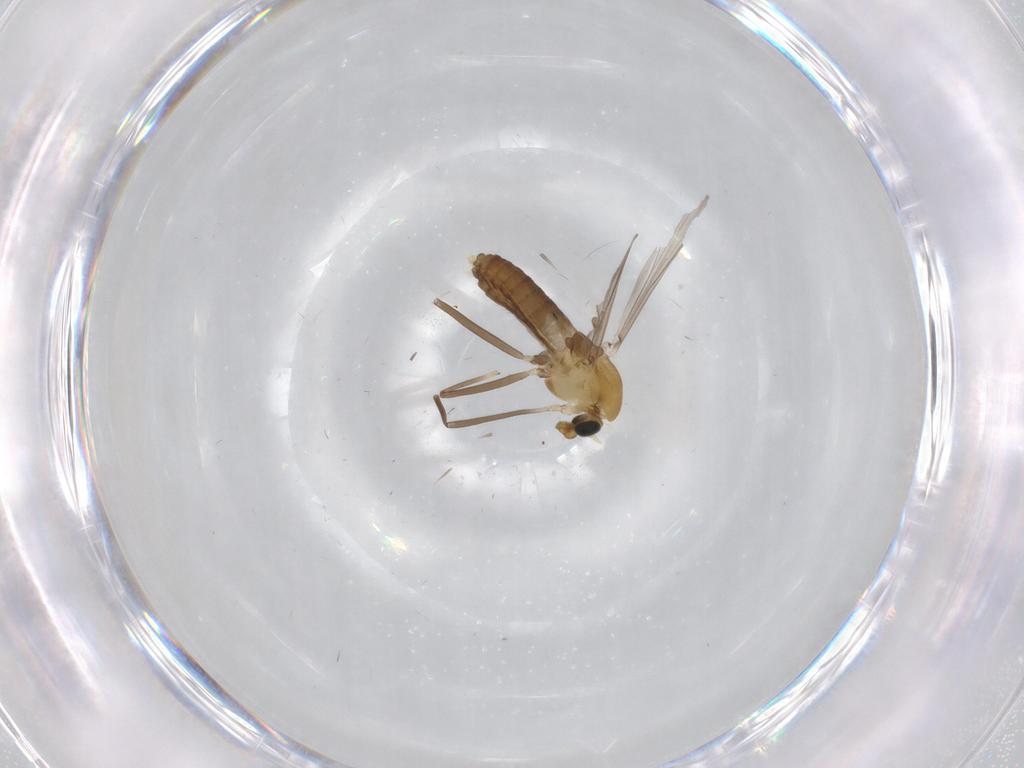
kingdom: Animalia
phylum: Arthropoda
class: Insecta
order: Diptera
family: Chironomidae
